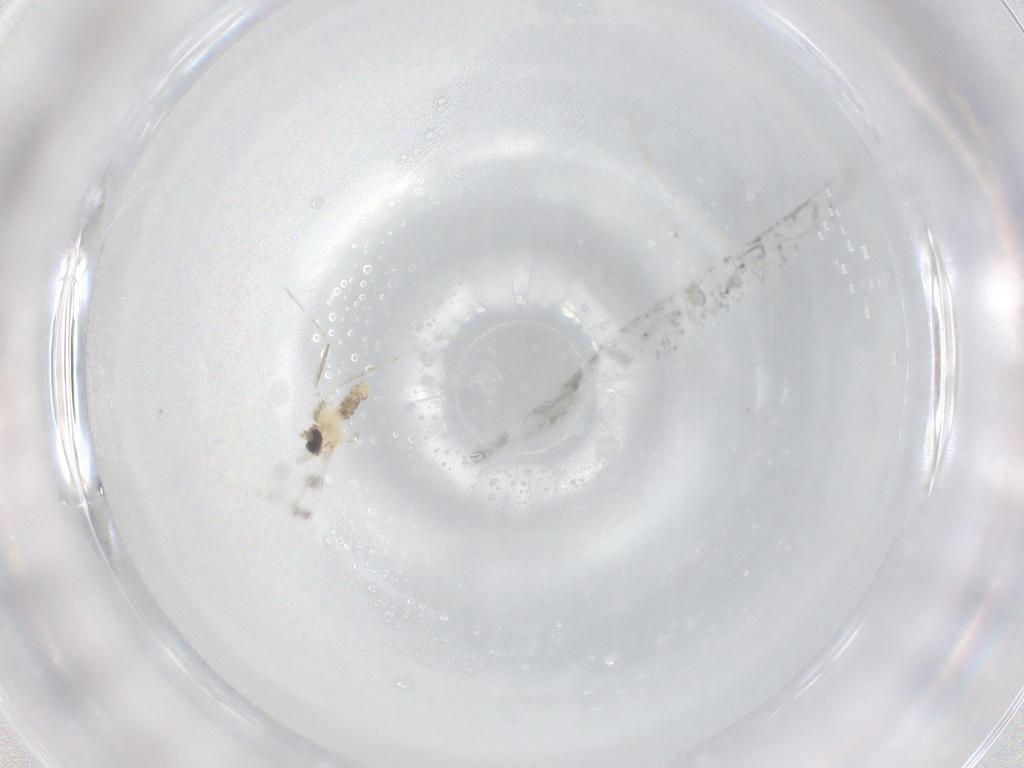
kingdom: Animalia
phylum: Arthropoda
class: Insecta
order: Diptera
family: Cecidomyiidae
